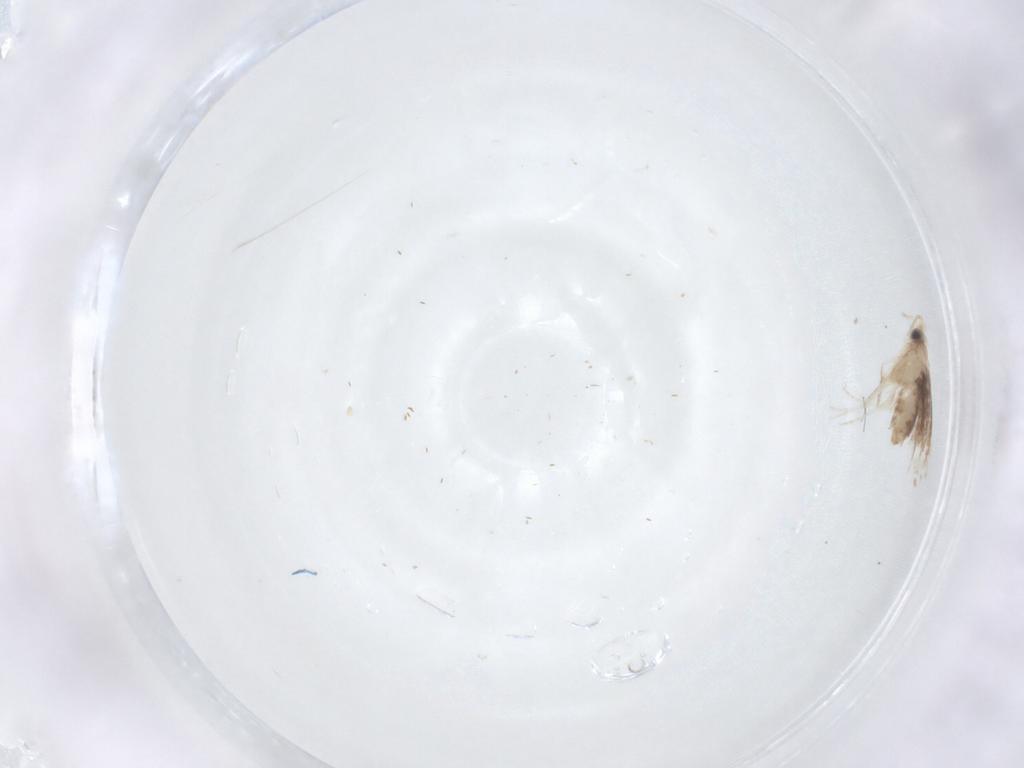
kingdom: Animalia
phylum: Arthropoda
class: Insecta
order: Lepidoptera
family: Nepticulidae
